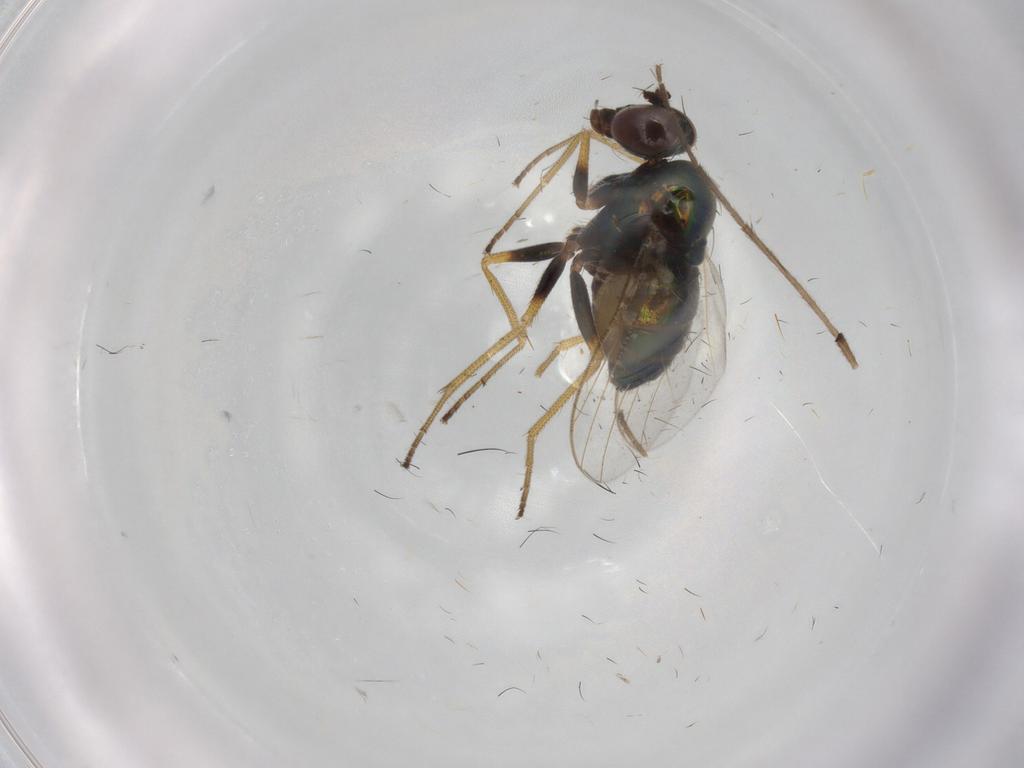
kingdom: Animalia
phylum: Arthropoda
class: Insecta
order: Diptera
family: Dolichopodidae
